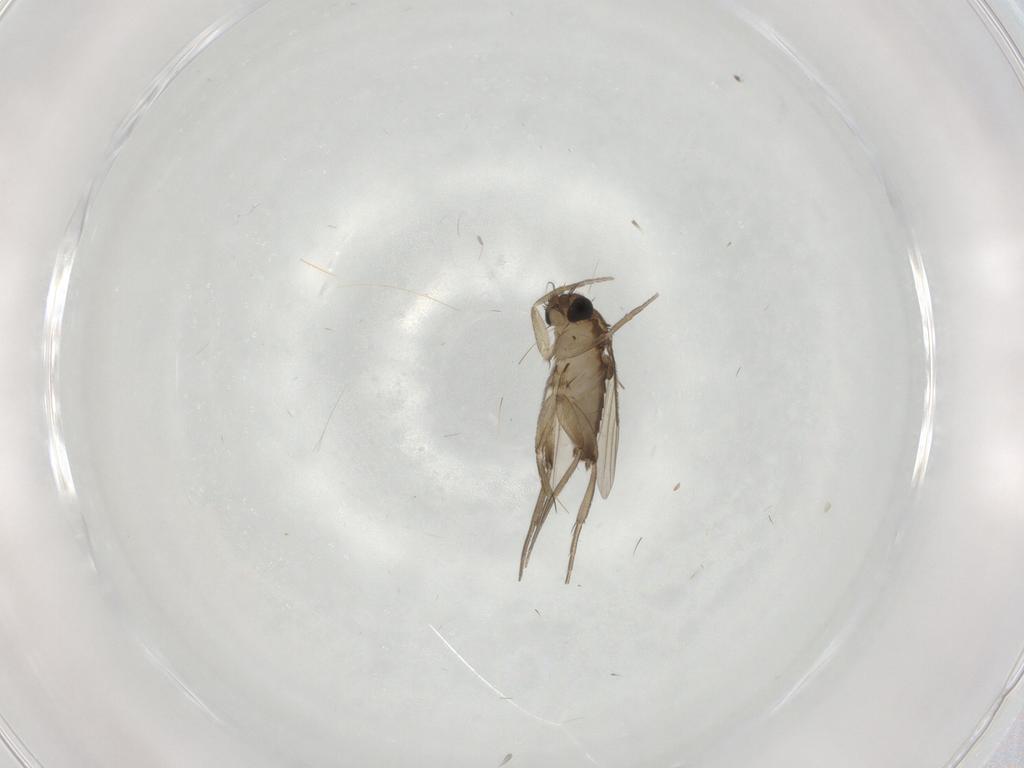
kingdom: Animalia
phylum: Arthropoda
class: Insecta
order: Diptera
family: Phoridae
